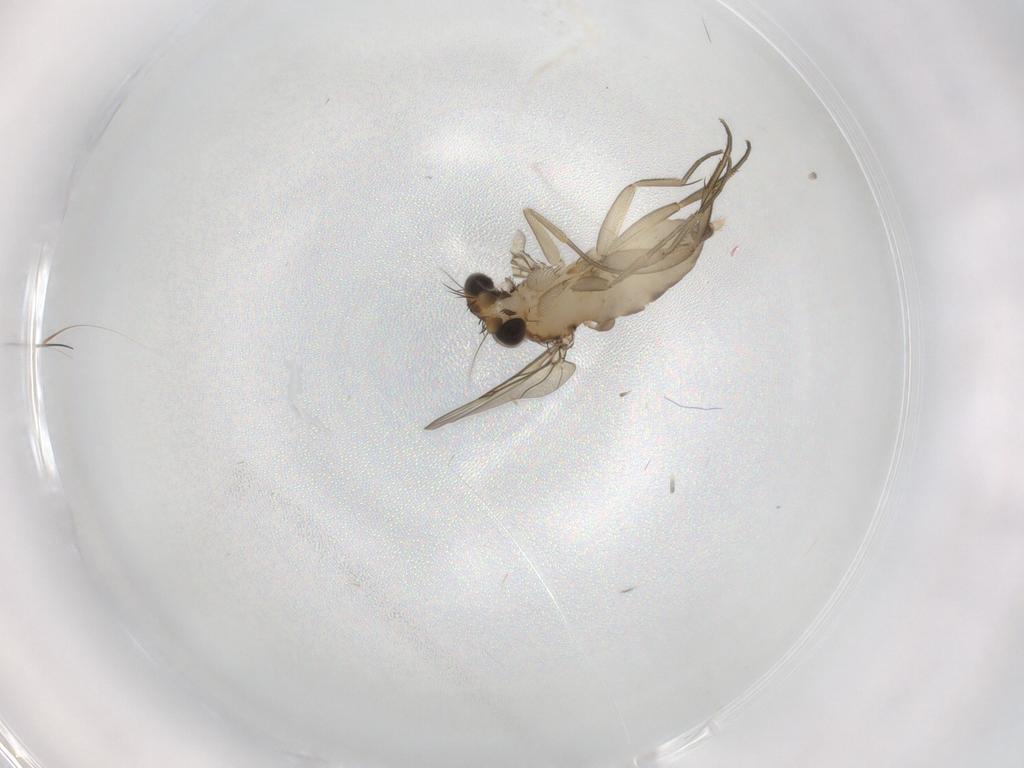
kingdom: Animalia
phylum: Arthropoda
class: Insecta
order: Diptera
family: Phoridae
